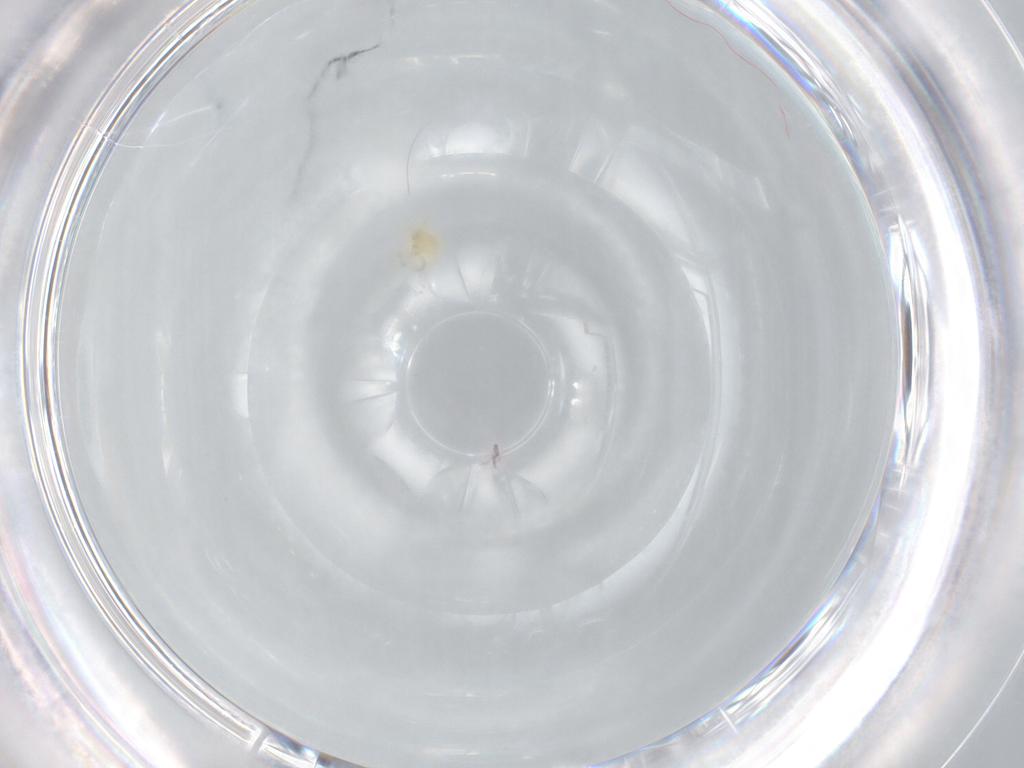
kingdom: Animalia
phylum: Arthropoda
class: Arachnida
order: Trombidiformes
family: Trombidiidae
